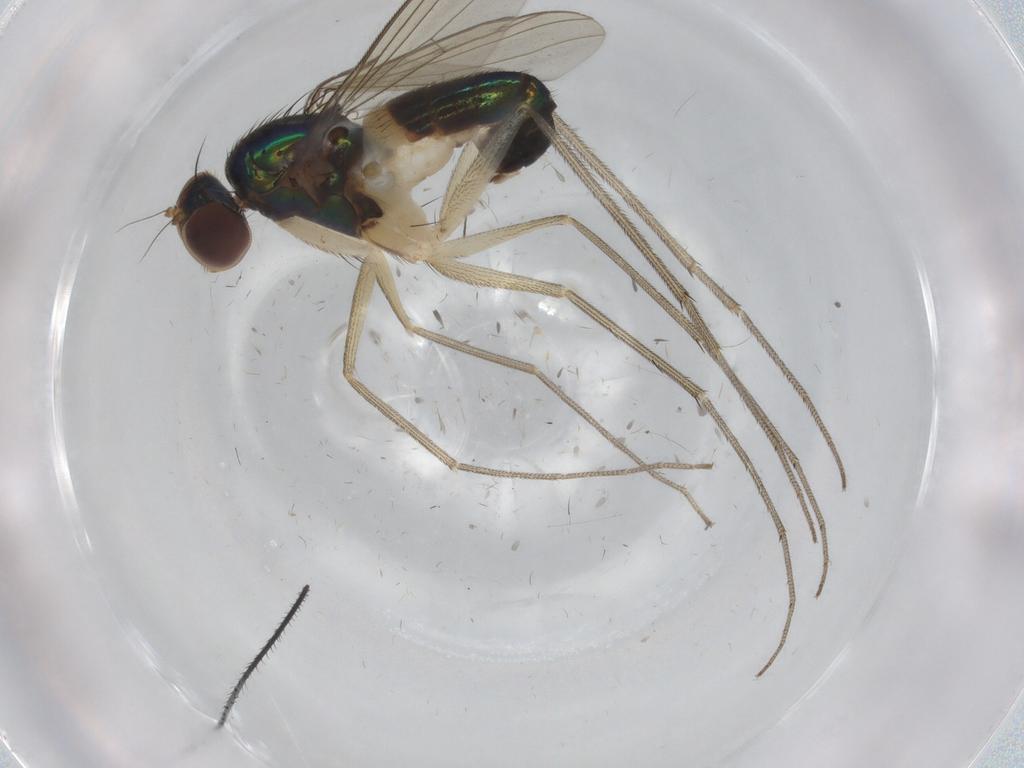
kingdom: Animalia
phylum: Arthropoda
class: Insecta
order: Diptera
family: Dolichopodidae
